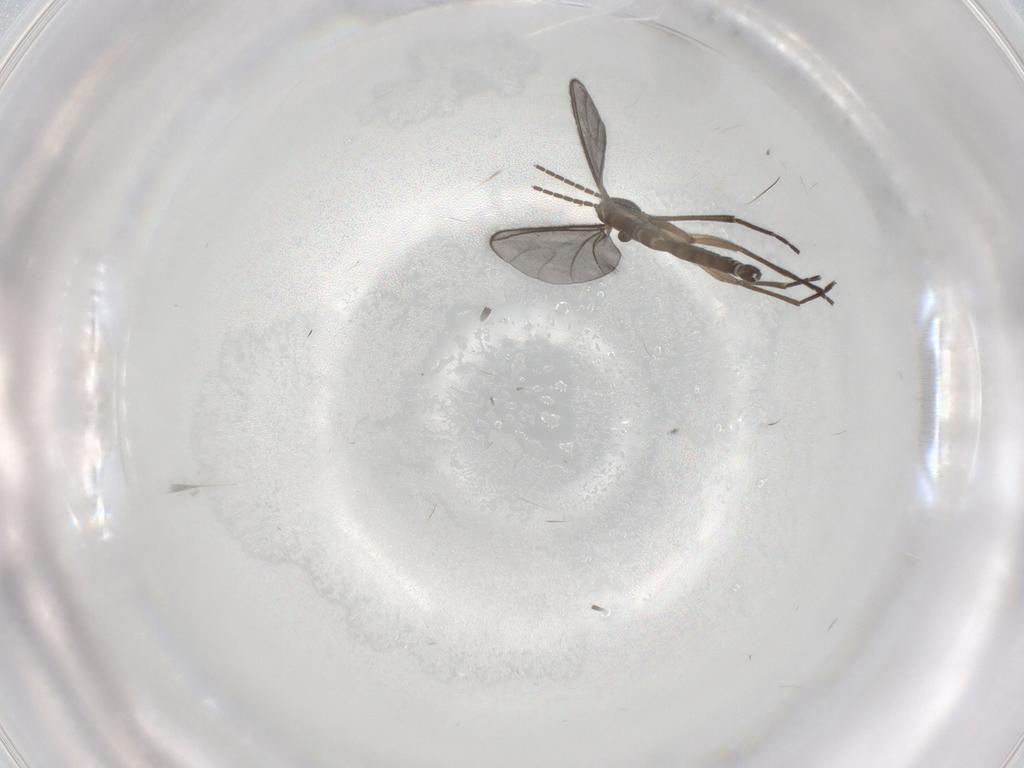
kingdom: Animalia
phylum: Arthropoda
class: Insecta
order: Diptera
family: Sciaridae
